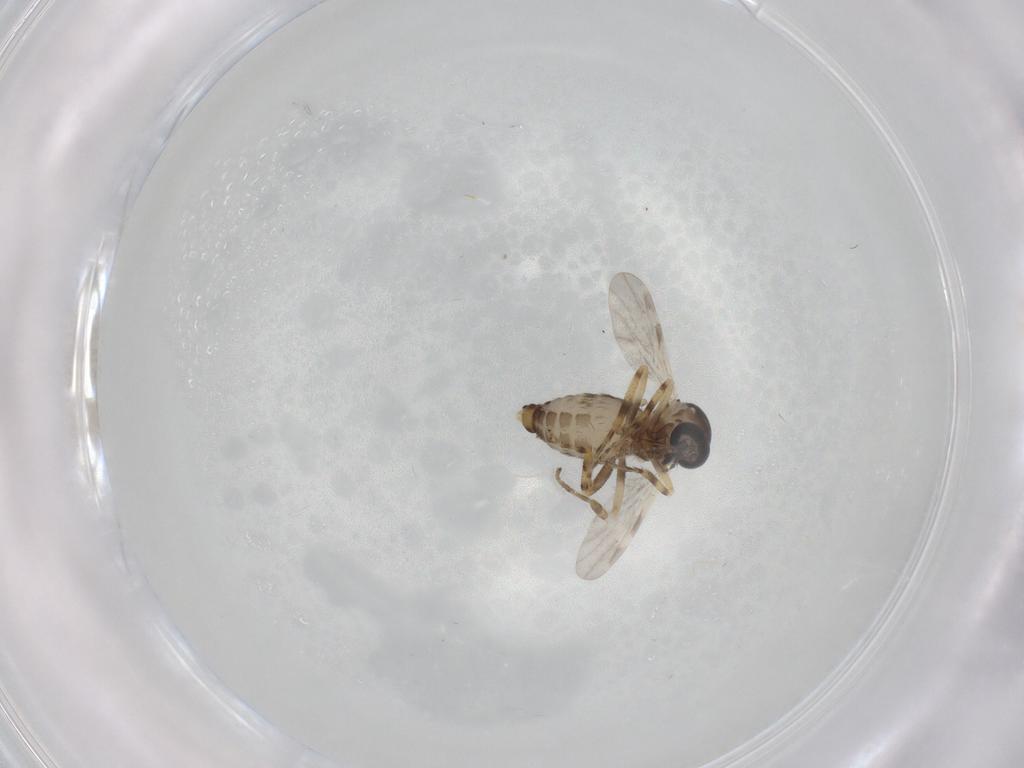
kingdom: Animalia
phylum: Arthropoda
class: Insecta
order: Diptera
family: Ceratopogonidae
